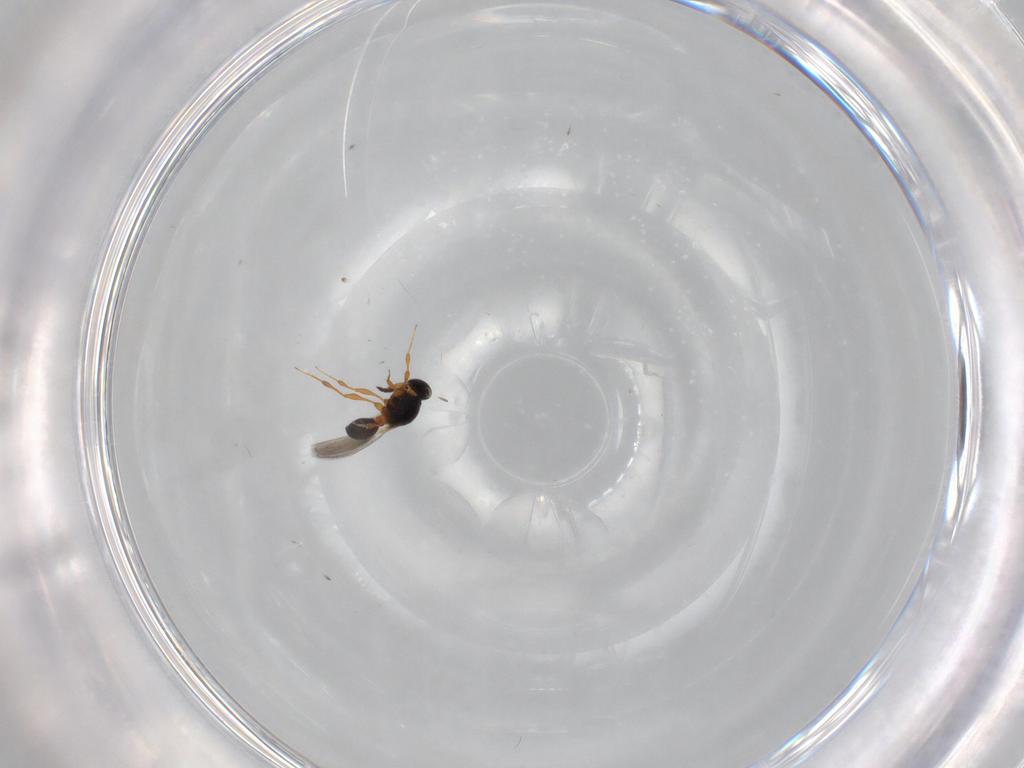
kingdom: Animalia
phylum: Arthropoda
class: Insecta
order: Hymenoptera
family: Platygastridae
